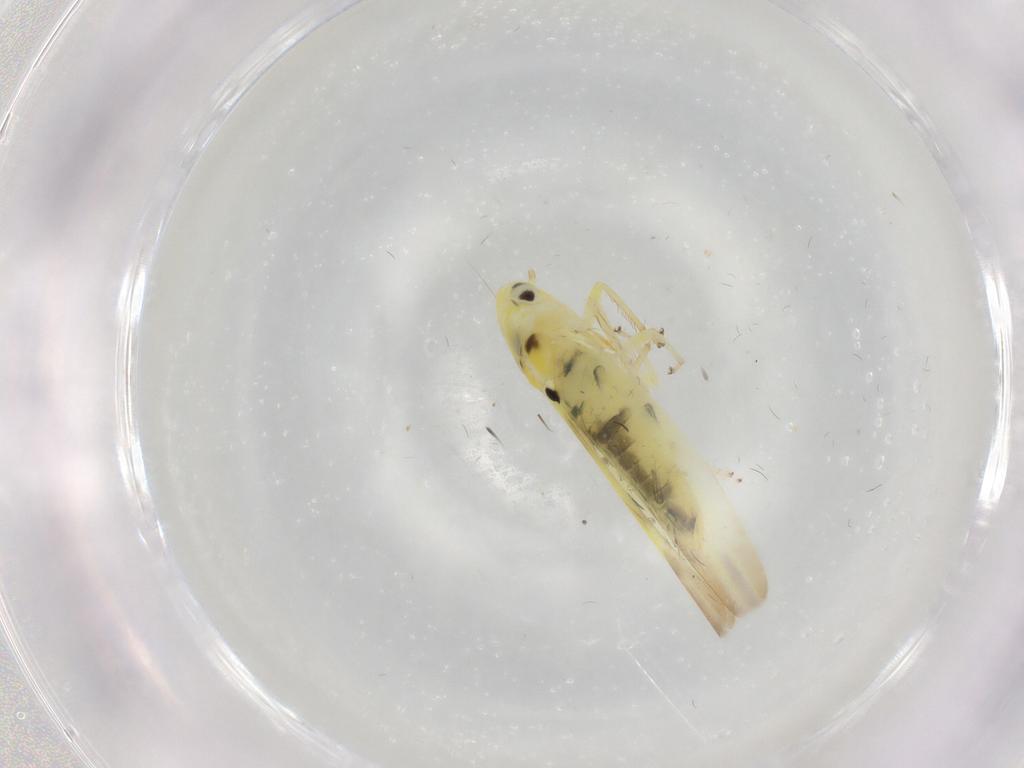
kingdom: Animalia
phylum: Arthropoda
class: Insecta
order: Hemiptera
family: Cicadellidae
